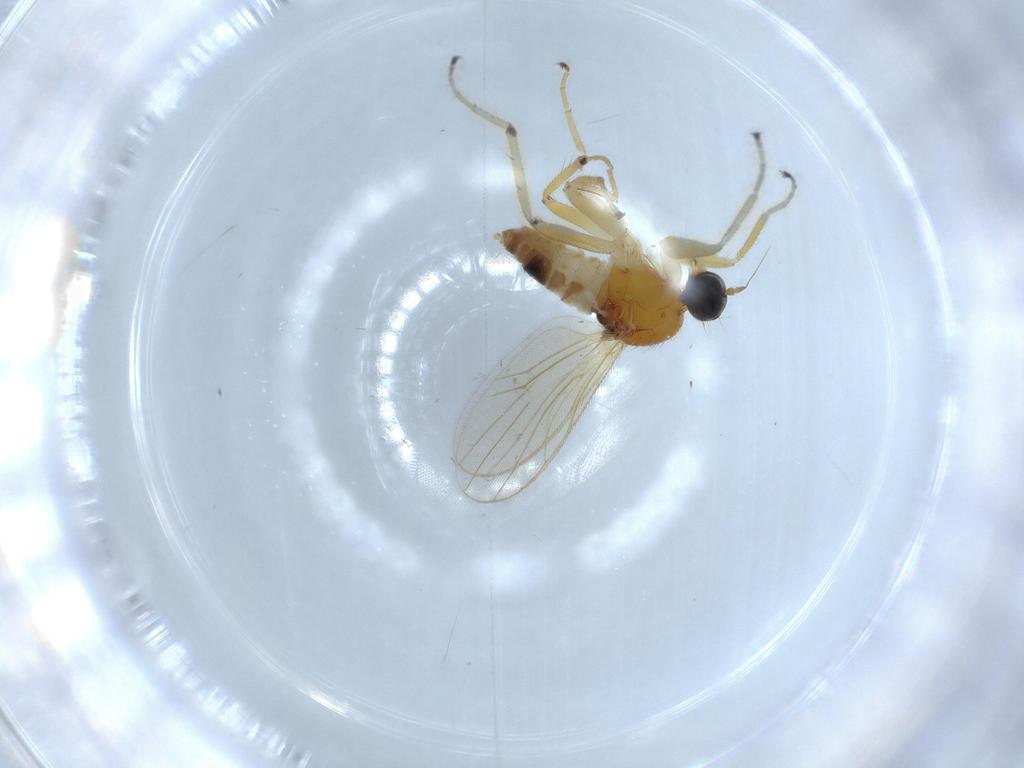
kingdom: Animalia
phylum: Arthropoda
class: Insecta
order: Diptera
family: Hybotidae
